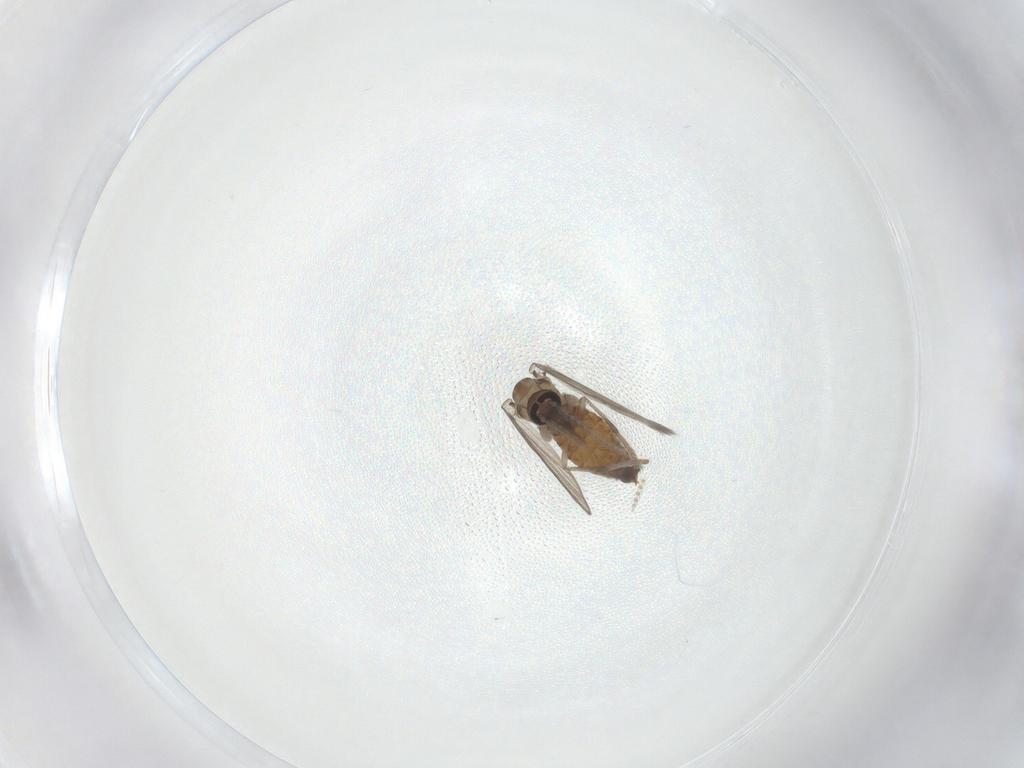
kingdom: Animalia
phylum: Arthropoda
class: Insecta
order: Diptera
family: Psychodidae
